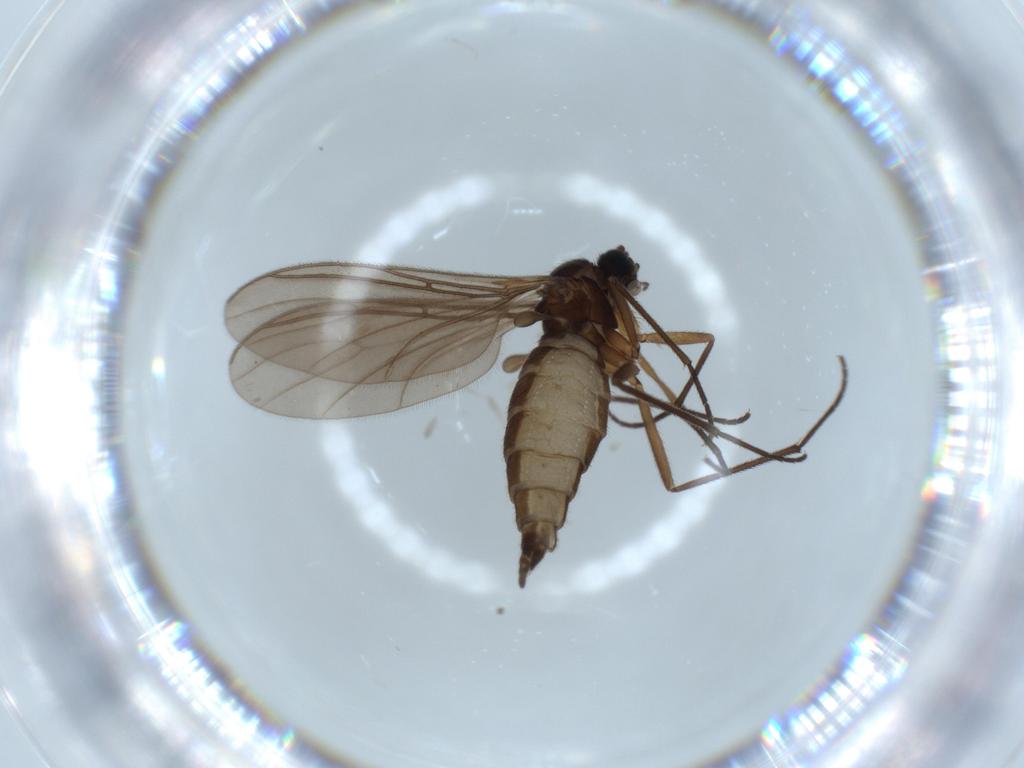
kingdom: Animalia
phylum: Arthropoda
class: Insecta
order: Diptera
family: Sciaridae
